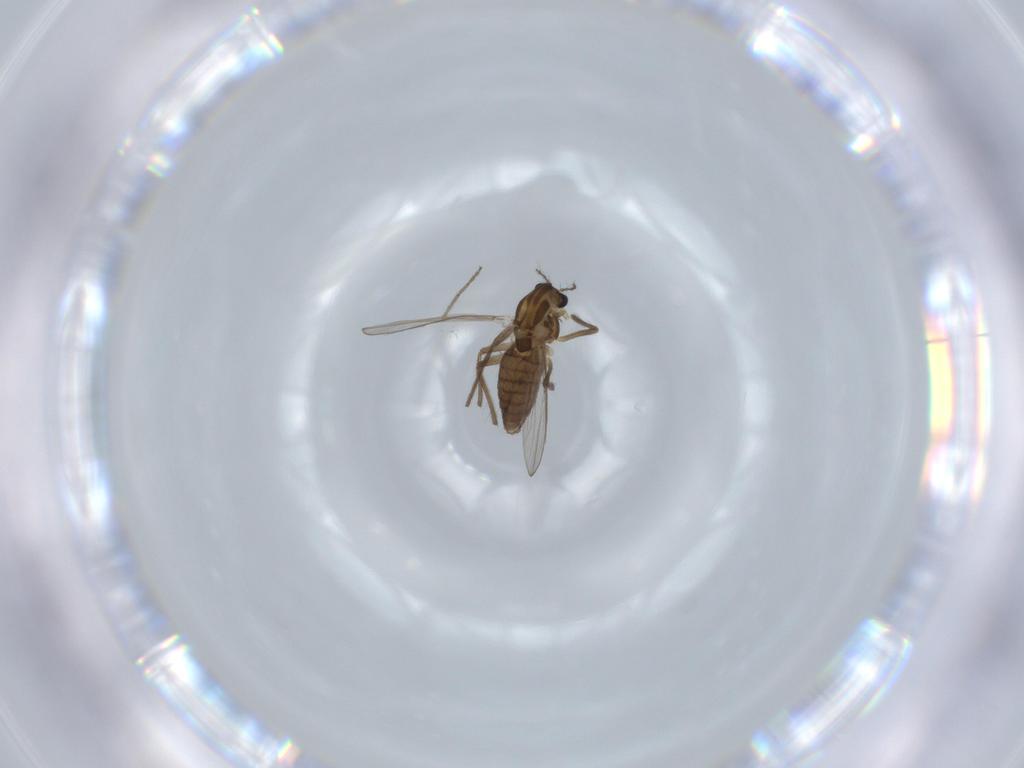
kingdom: Animalia
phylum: Arthropoda
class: Insecta
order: Diptera
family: Chironomidae
